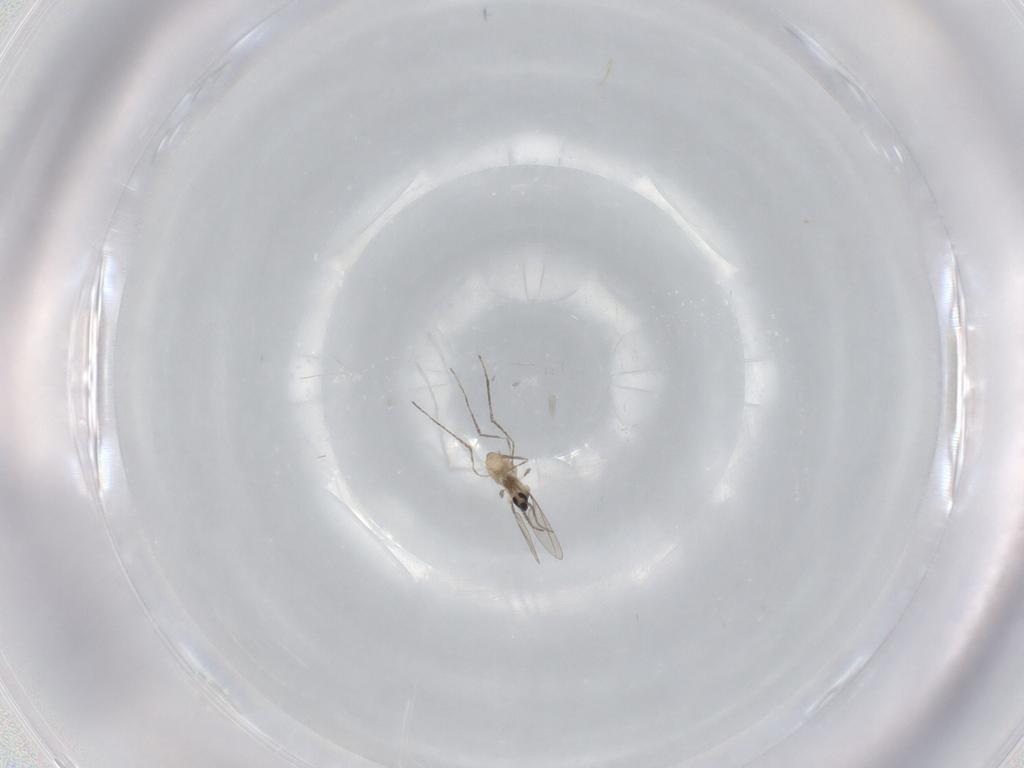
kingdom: Animalia
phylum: Arthropoda
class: Insecta
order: Diptera
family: Cecidomyiidae
